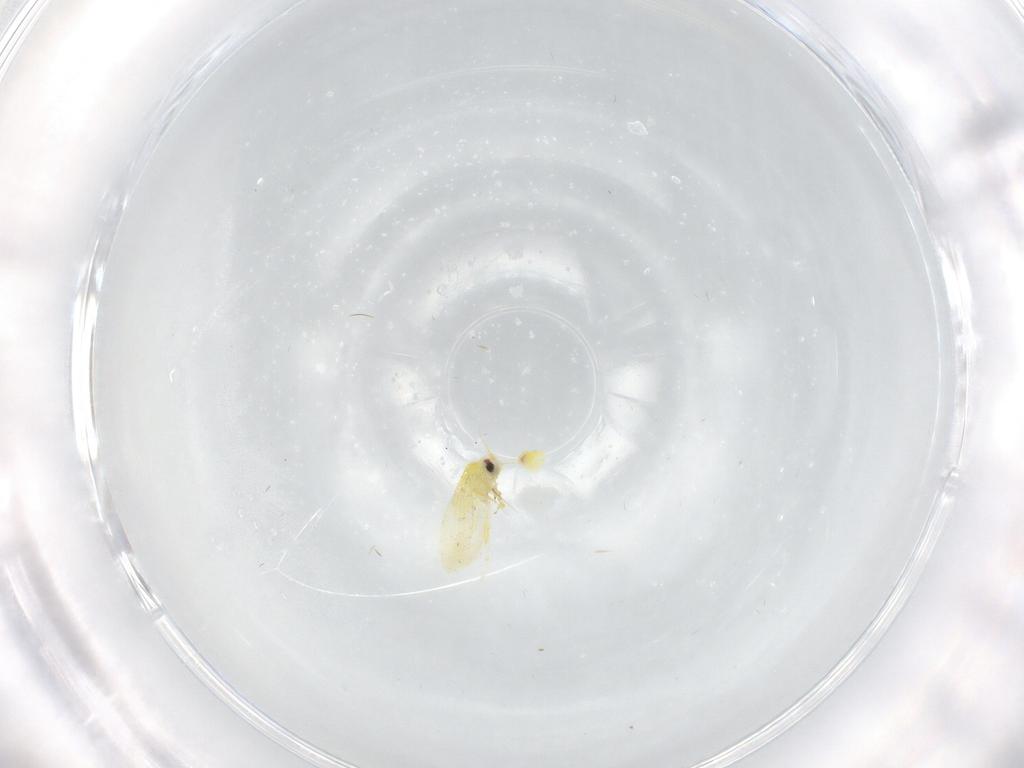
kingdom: Animalia
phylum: Arthropoda
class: Insecta
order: Hemiptera
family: Aleyrodidae
